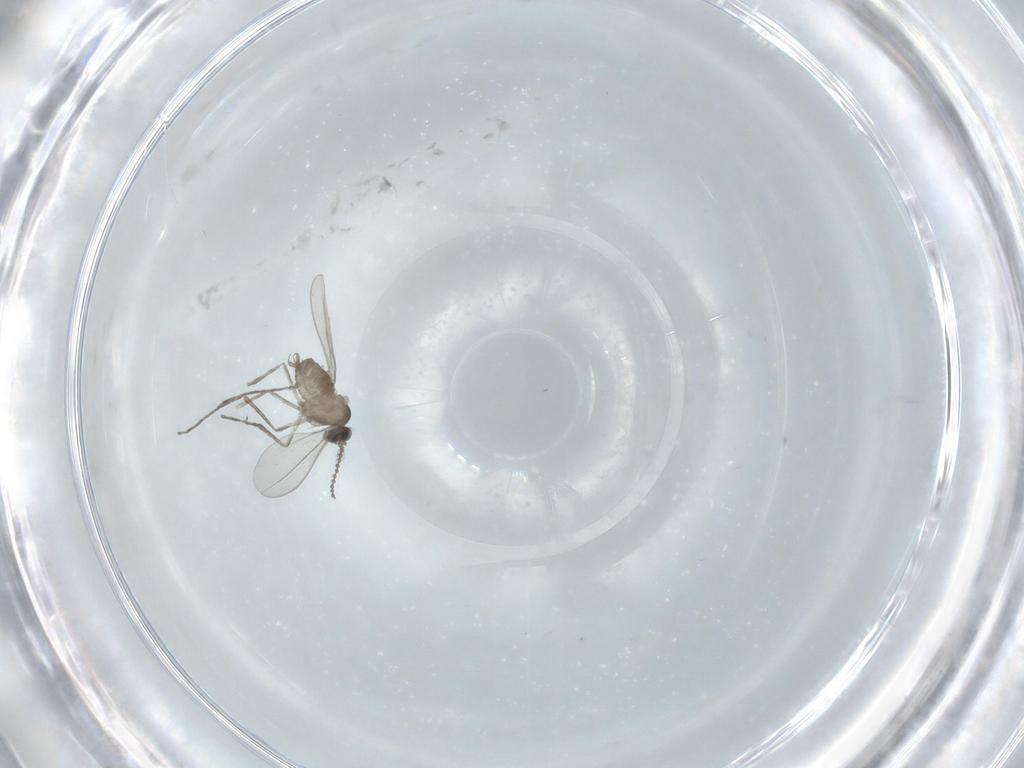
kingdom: Animalia
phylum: Arthropoda
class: Insecta
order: Diptera
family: Cecidomyiidae
